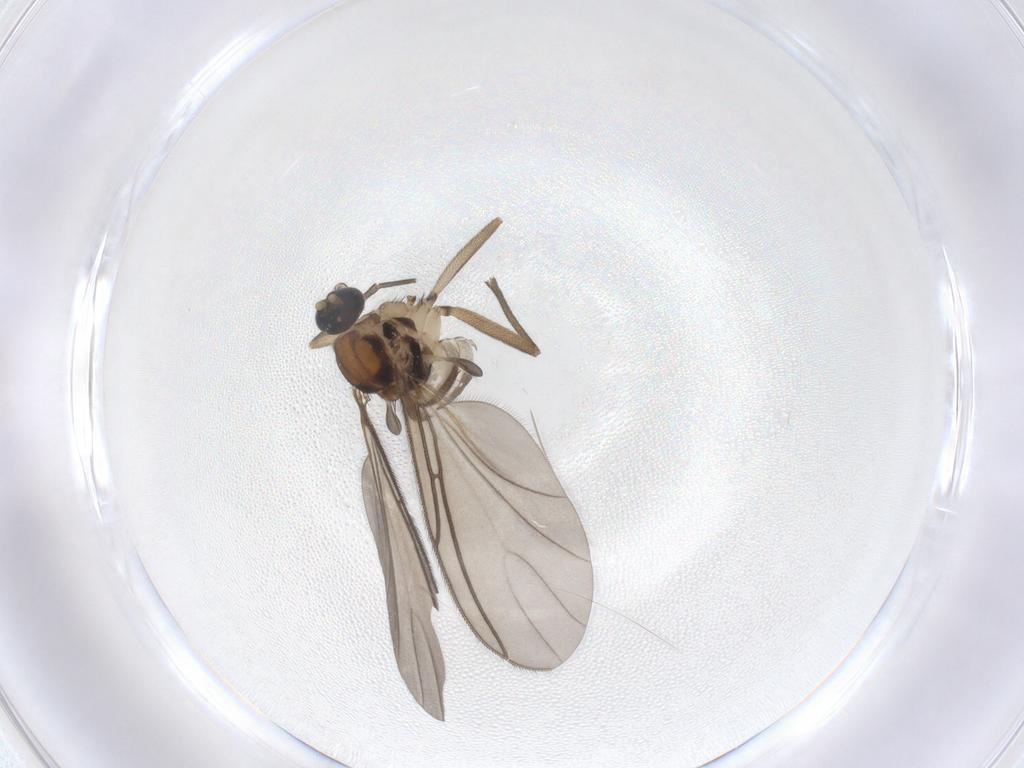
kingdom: Animalia
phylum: Arthropoda
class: Insecta
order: Diptera
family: Sciaridae
